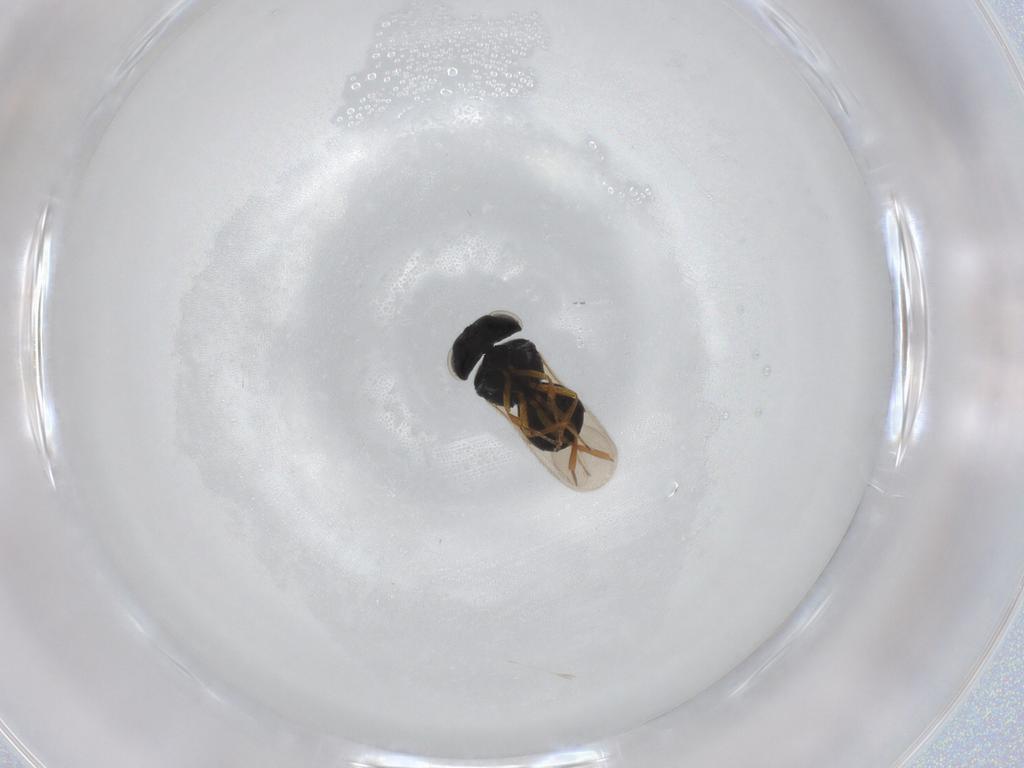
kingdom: Animalia
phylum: Arthropoda
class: Insecta
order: Hymenoptera
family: Scelionidae
